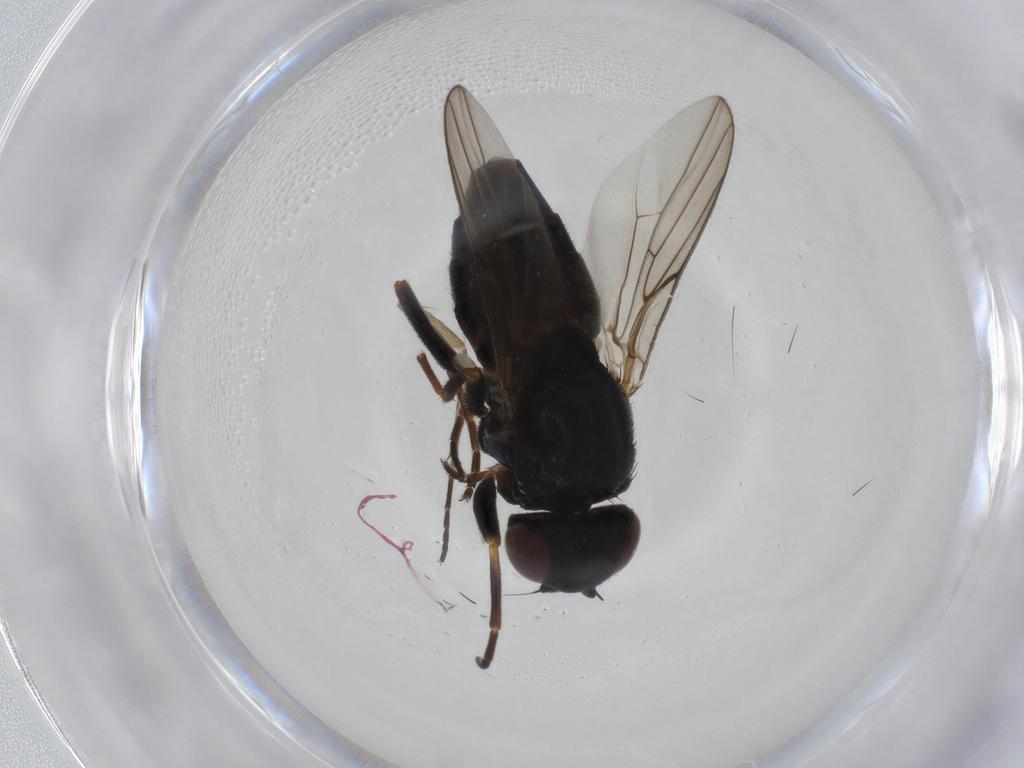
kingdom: Animalia
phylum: Arthropoda
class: Insecta
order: Diptera
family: Chloropidae
